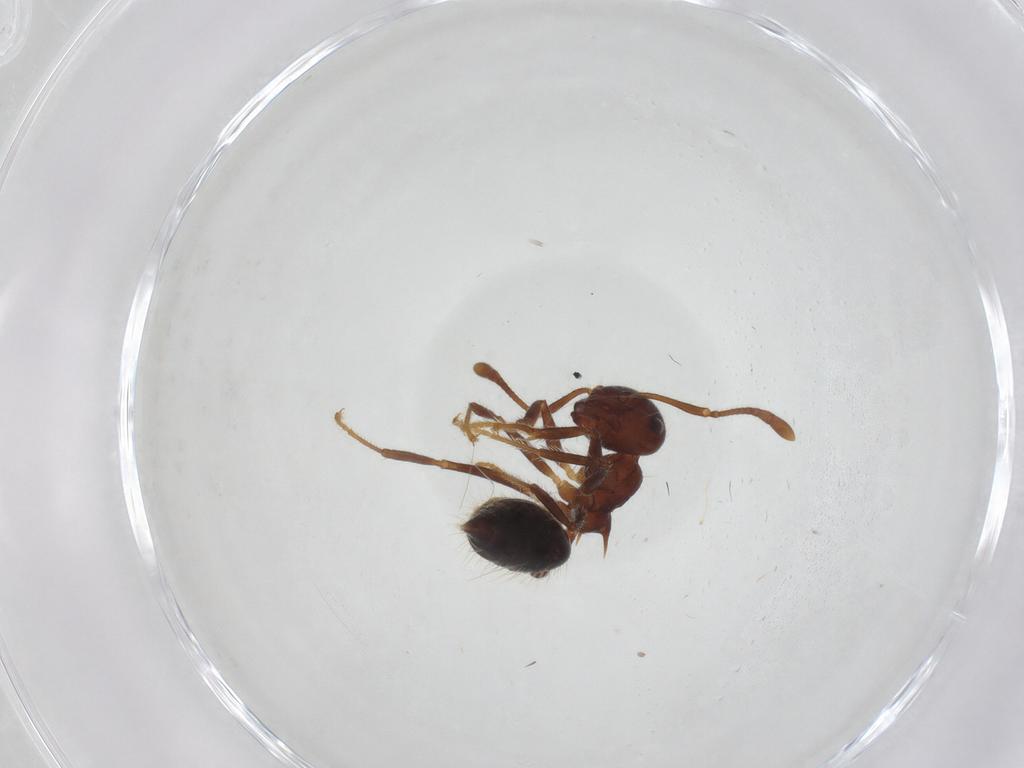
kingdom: Animalia
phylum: Arthropoda
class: Insecta
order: Hymenoptera
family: Formicidae
